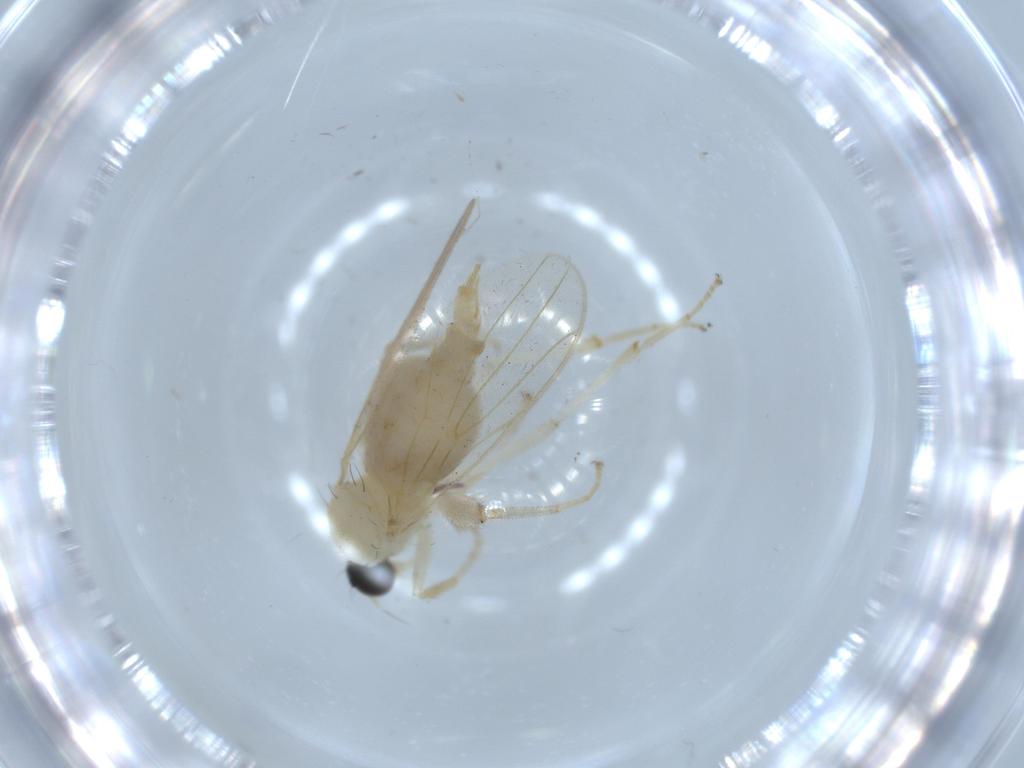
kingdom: Animalia
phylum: Arthropoda
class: Insecta
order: Diptera
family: Hybotidae
